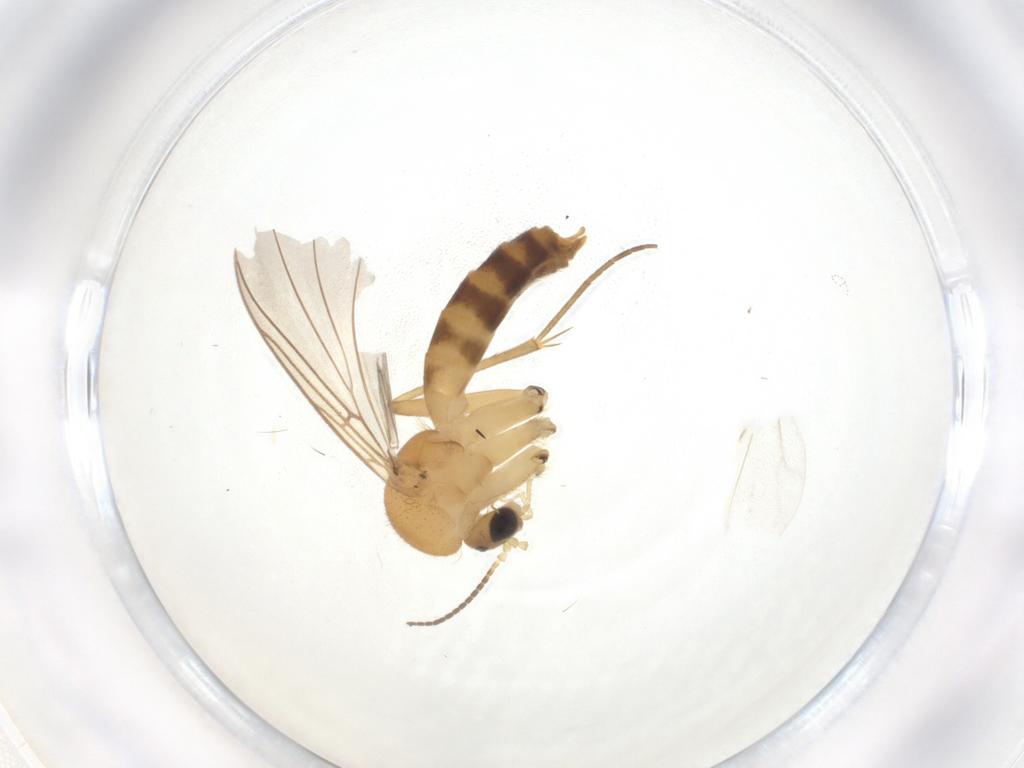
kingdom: Animalia
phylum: Arthropoda
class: Insecta
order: Diptera
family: Mycetophilidae
